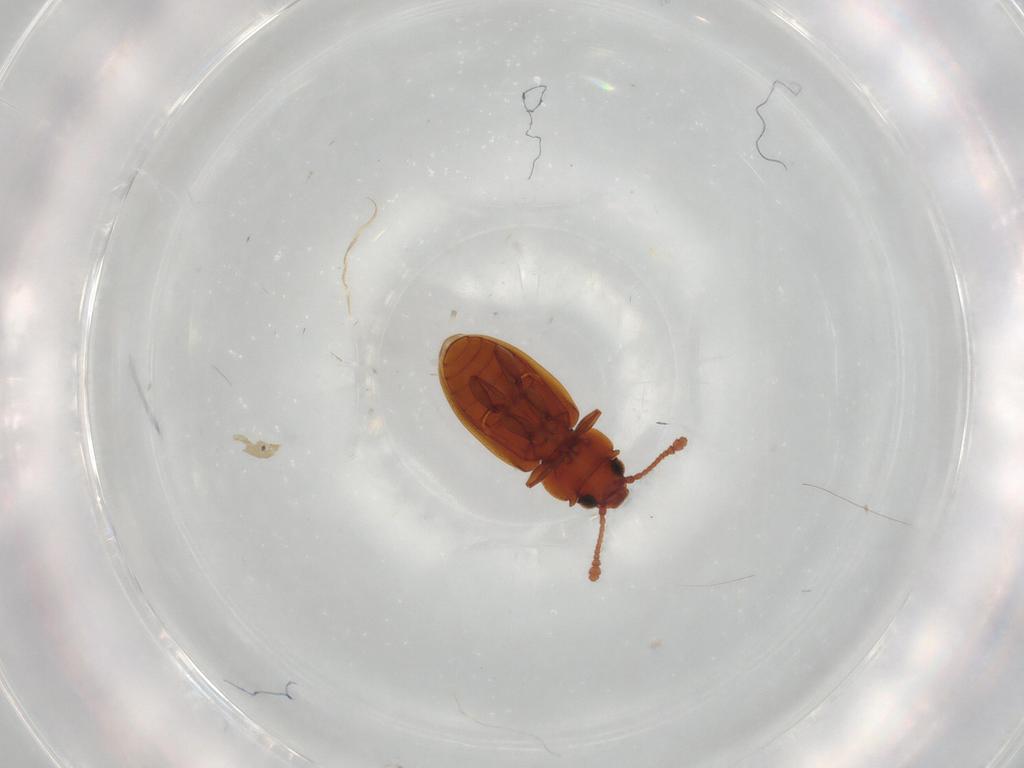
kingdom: Animalia
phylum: Arthropoda
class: Insecta
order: Coleoptera
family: Silvanidae
